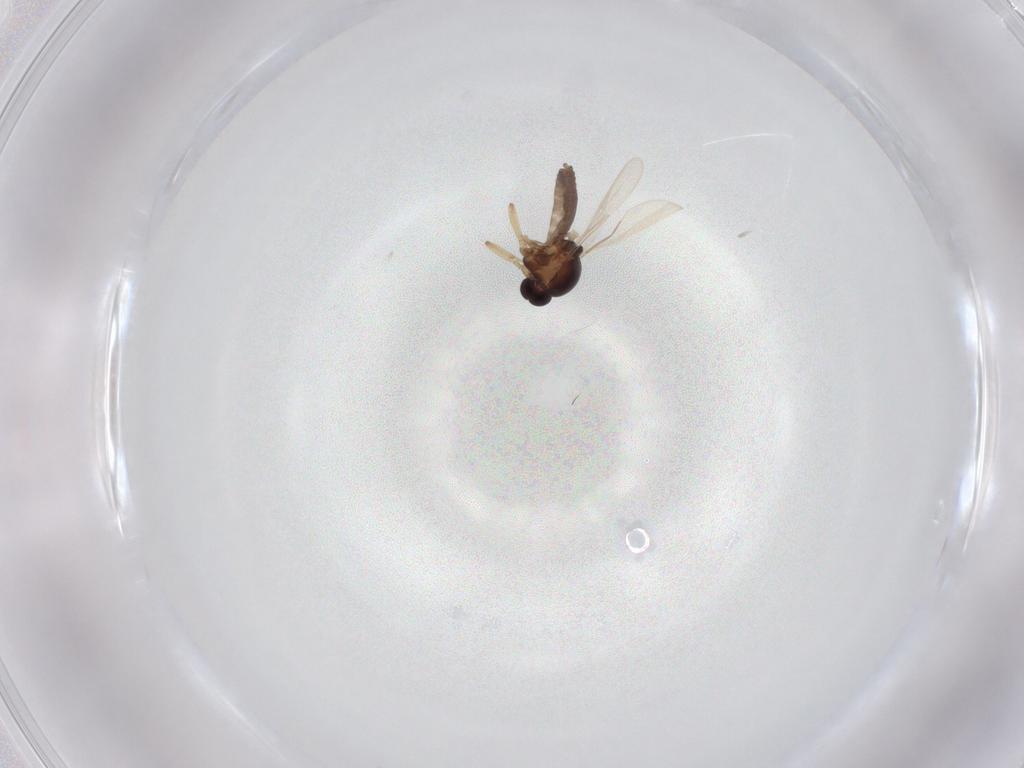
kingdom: Animalia
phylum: Arthropoda
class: Insecta
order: Diptera
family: Ceratopogonidae
